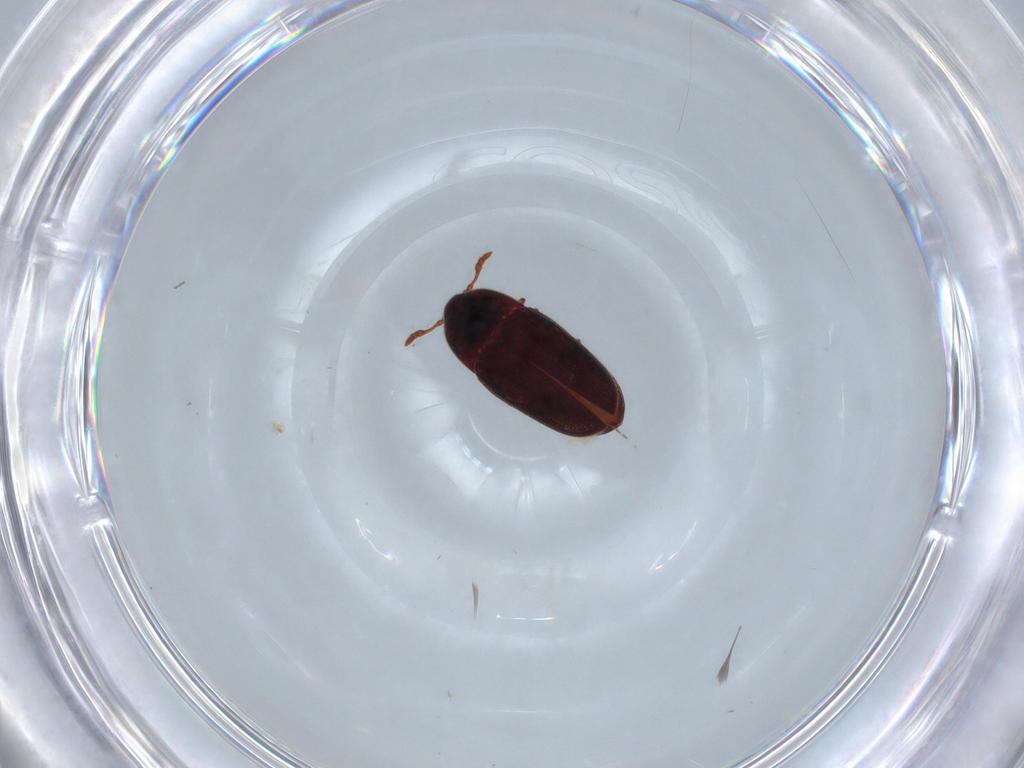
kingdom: Animalia
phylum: Arthropoda
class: Insecta
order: Coleoptera
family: Throscidae
